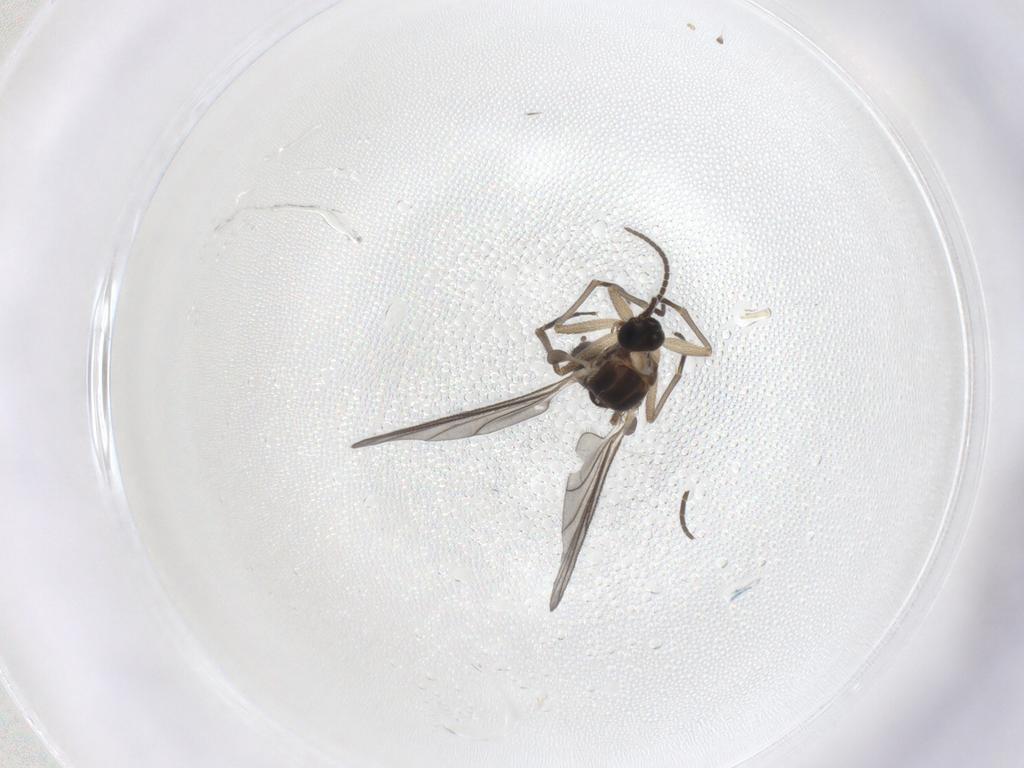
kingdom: Animalia
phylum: Arthropoda
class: Insecta
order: Diptera
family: Sciaridae
